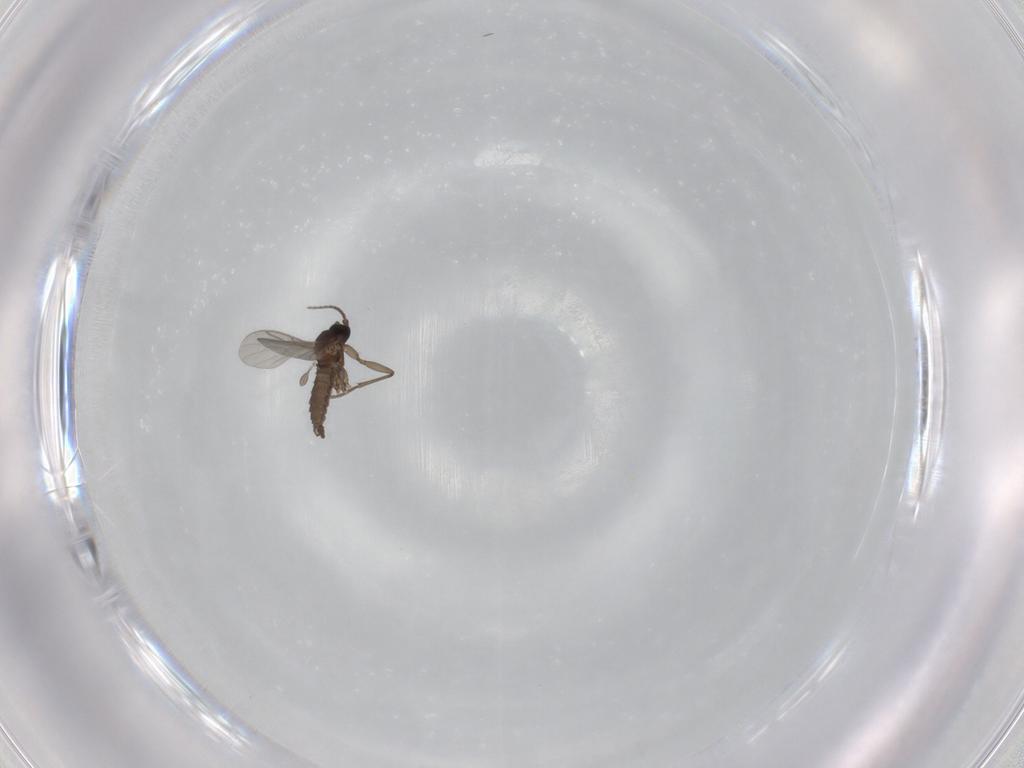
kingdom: Animalia
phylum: Arthropoda
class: Insecta
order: Diptera
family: Sciaridae
